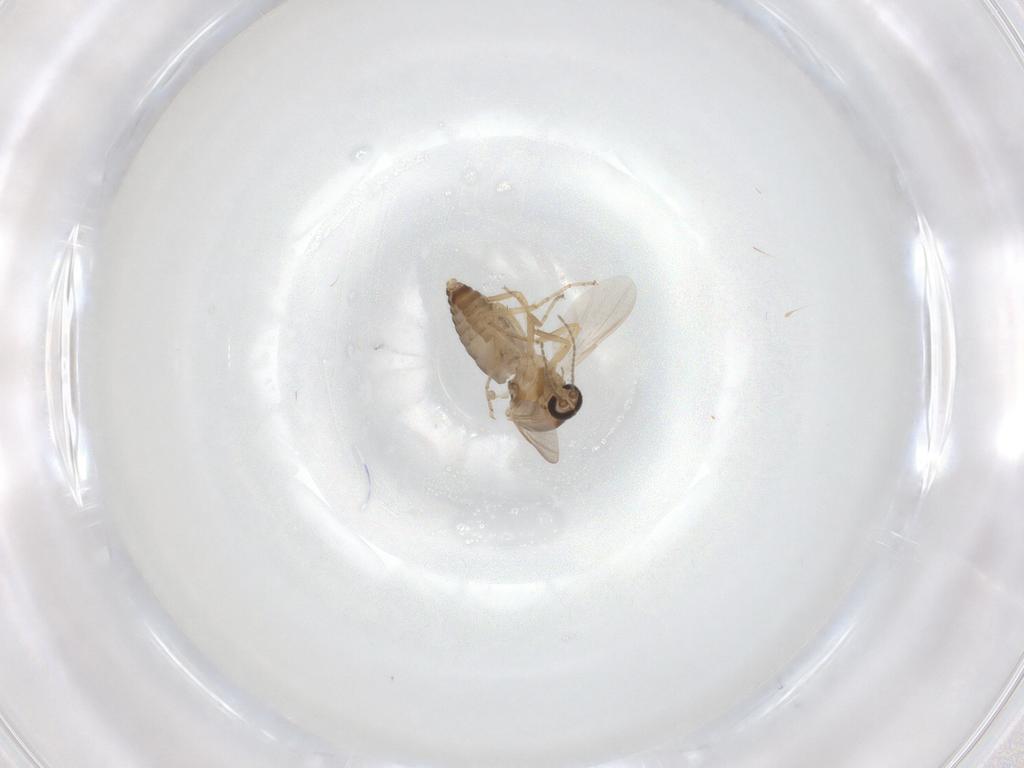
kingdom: Animalia
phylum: Arthropoda
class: Insecta
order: Diptera
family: Ceratopogonidae
